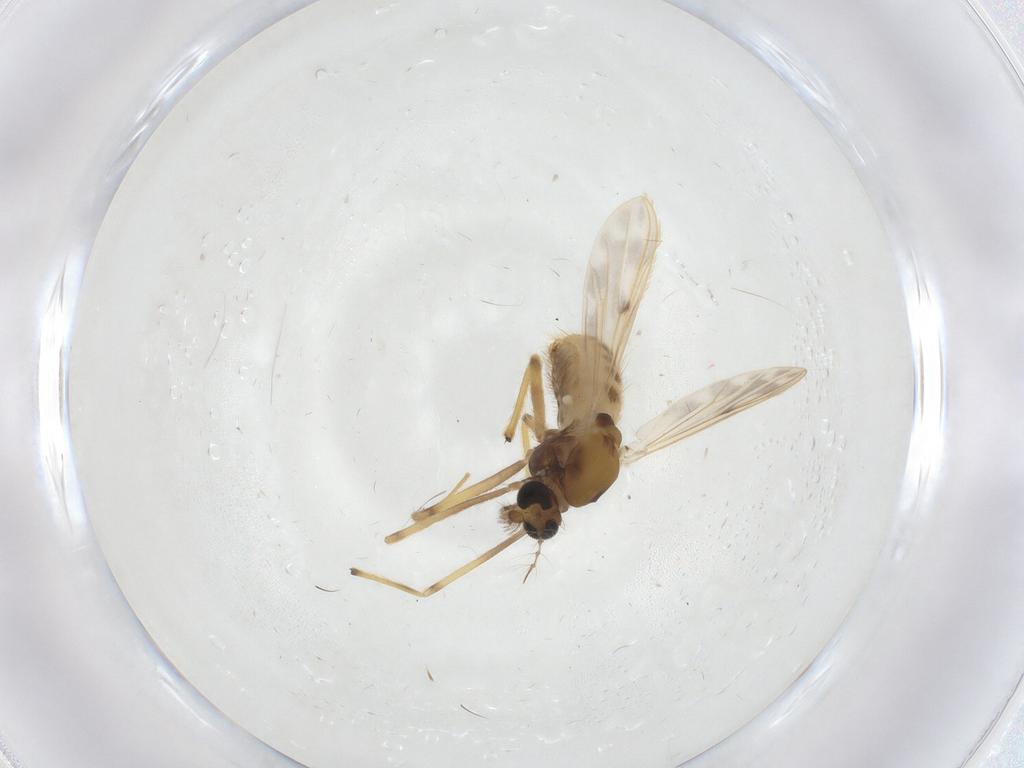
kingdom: Animalia
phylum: Arthropoda
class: Insecta
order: Diptera
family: Chironomidae
